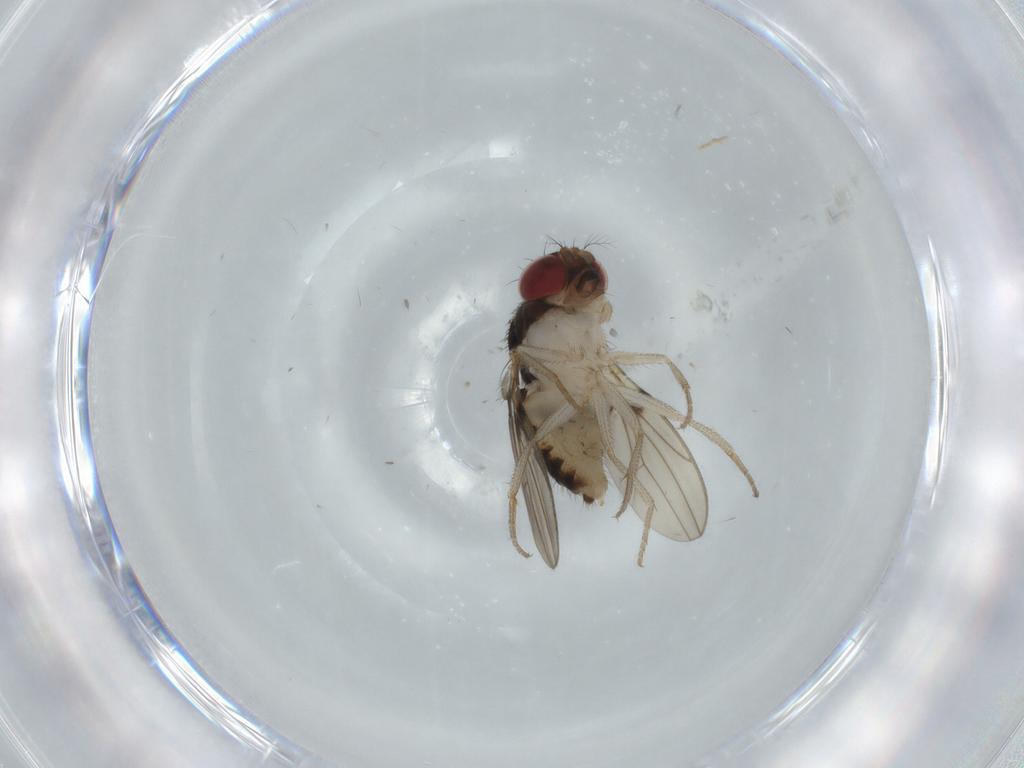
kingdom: Animalia
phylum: Arthropoda
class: Insecta
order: Diptera
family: Drosophilidae
